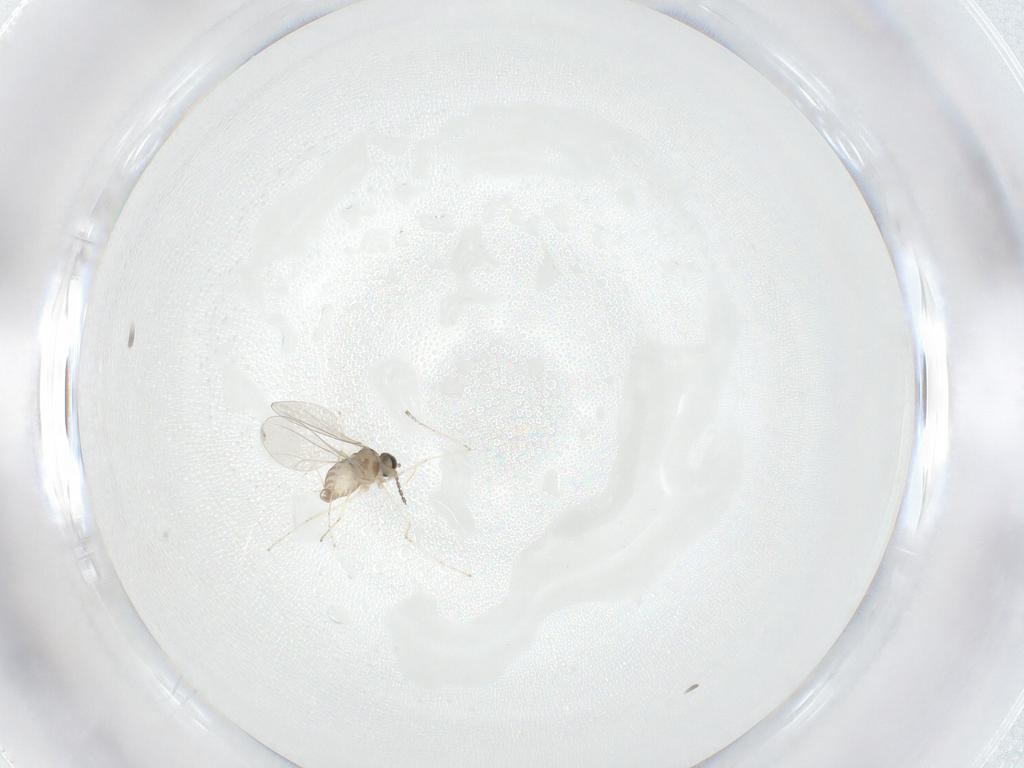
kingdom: Animalia
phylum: Arthropoda
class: Insecta
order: Diptera
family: Cecidomyiidae
